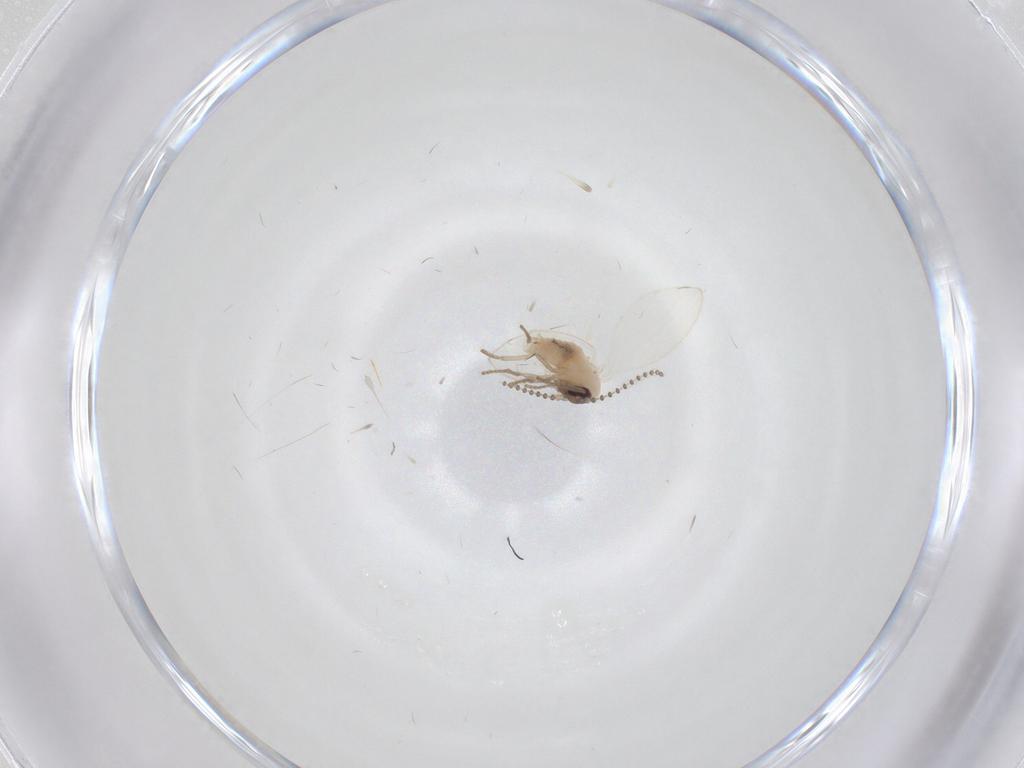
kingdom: Animalia
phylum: Arthropoda
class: Insecta
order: Diptera
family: Psychodidae
